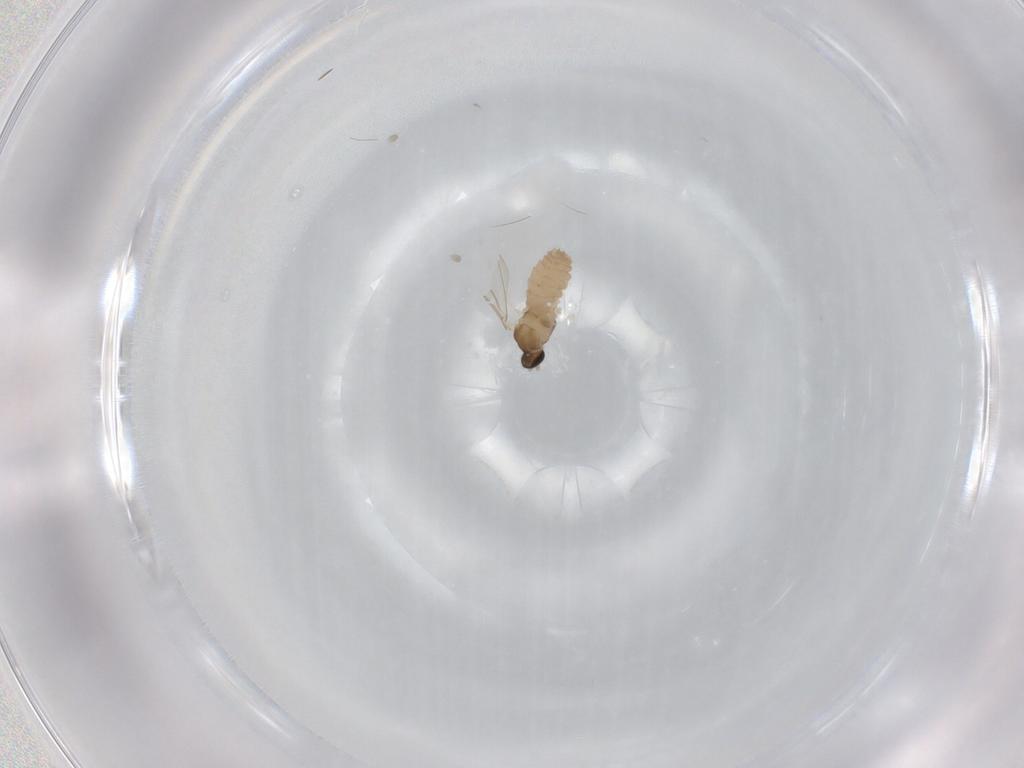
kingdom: Animalia
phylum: Arthropoda
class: Insecta
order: Diptera
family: Cecidomyiidae
